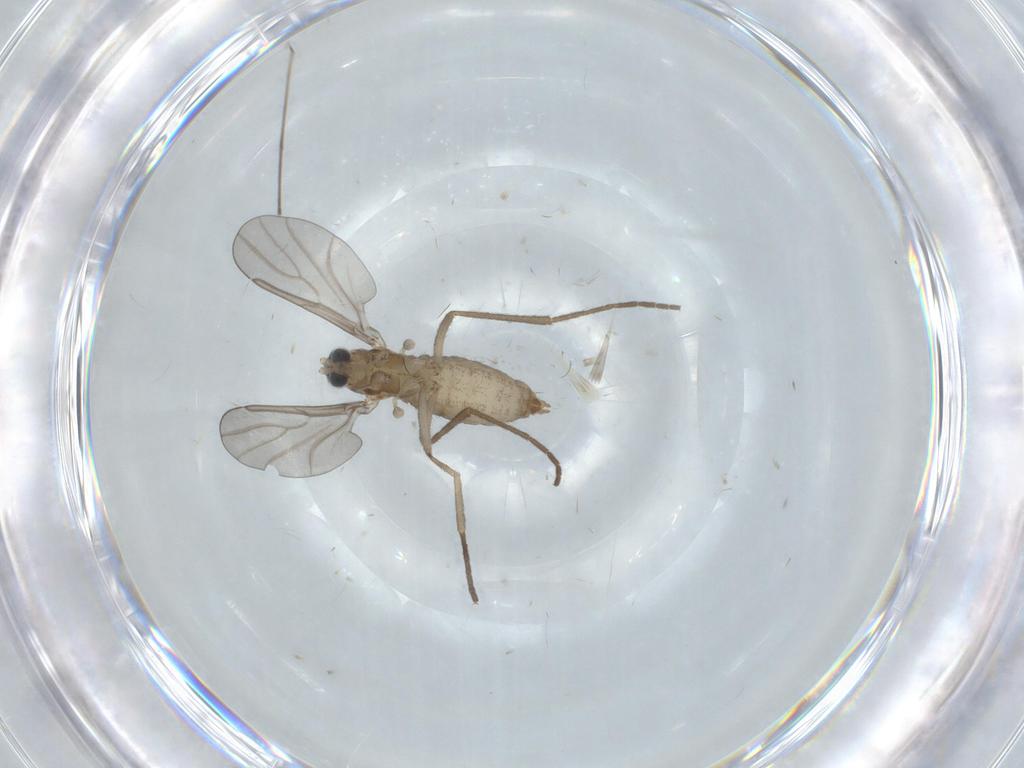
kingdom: Animalia
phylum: Arthropoda
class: Insecta
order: Diptera
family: Cecidomyiidae
